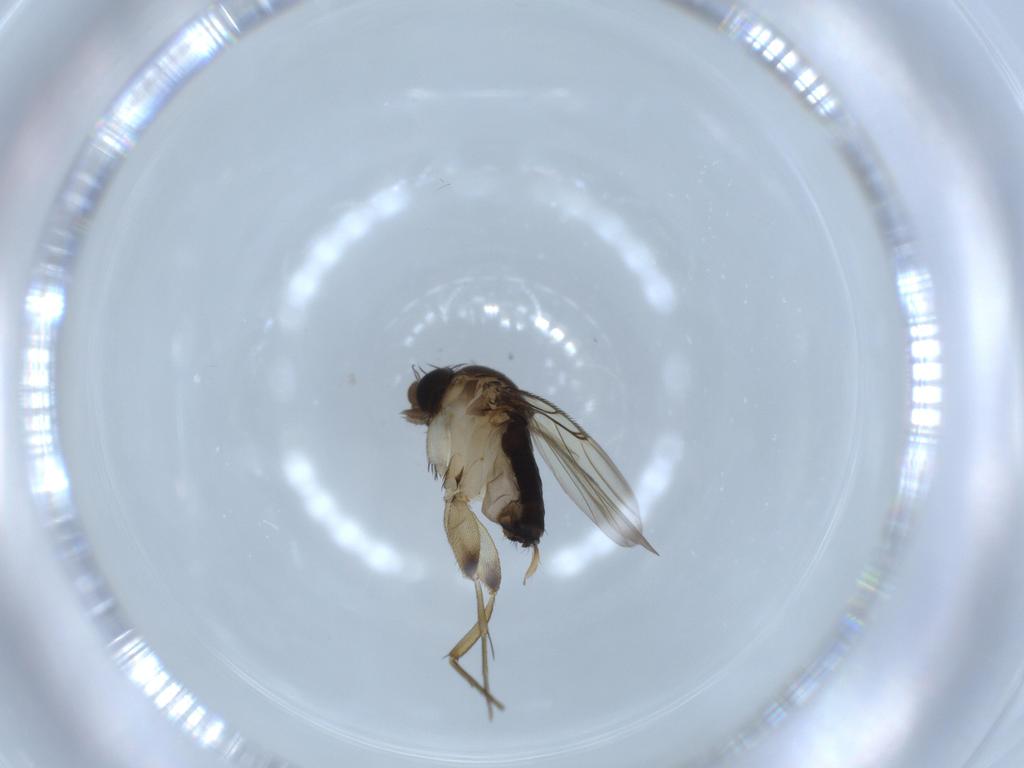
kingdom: Animalia
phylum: Arthropoda
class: Insecta
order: Diptera
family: Phoridae
